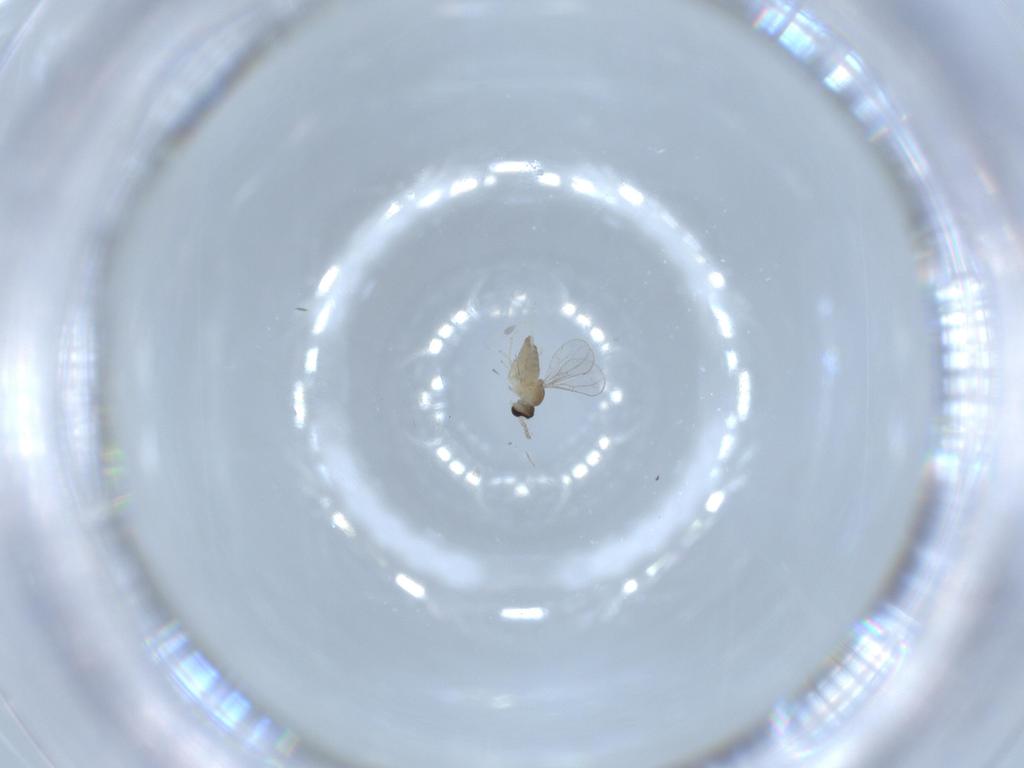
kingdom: Animalia
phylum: Arthropoda
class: Insecta
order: Diptera
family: Cecidomyiidae
